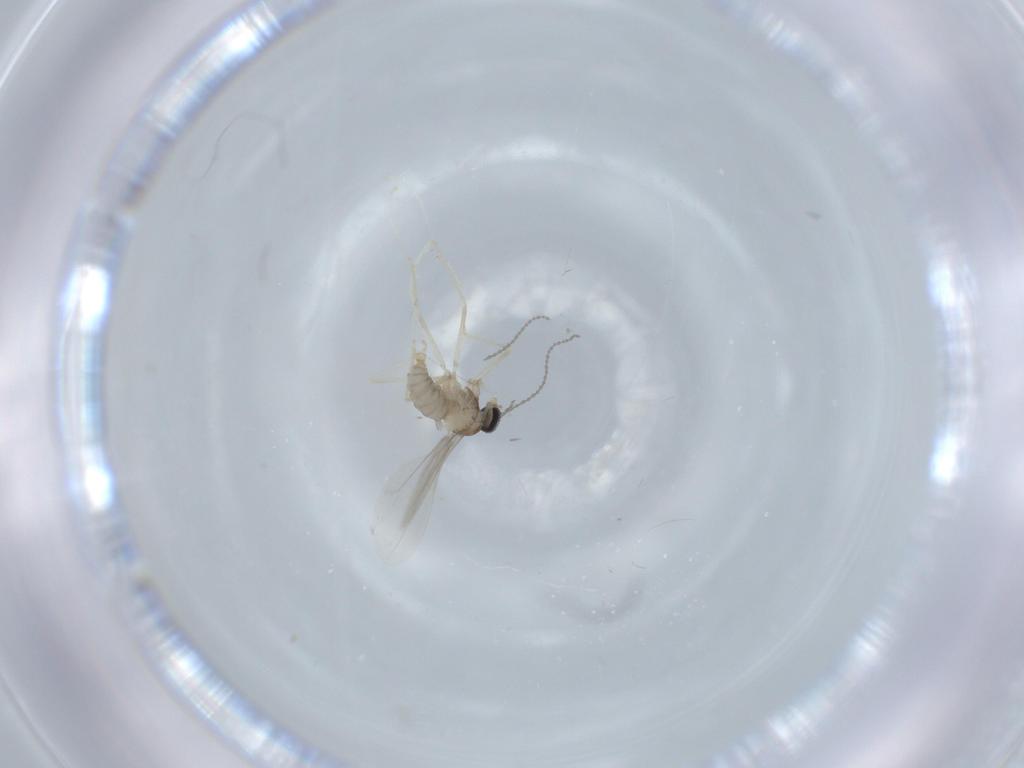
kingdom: Animalia
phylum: Arthropoda
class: Insecta
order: Diptera
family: Cecidomyiidae
